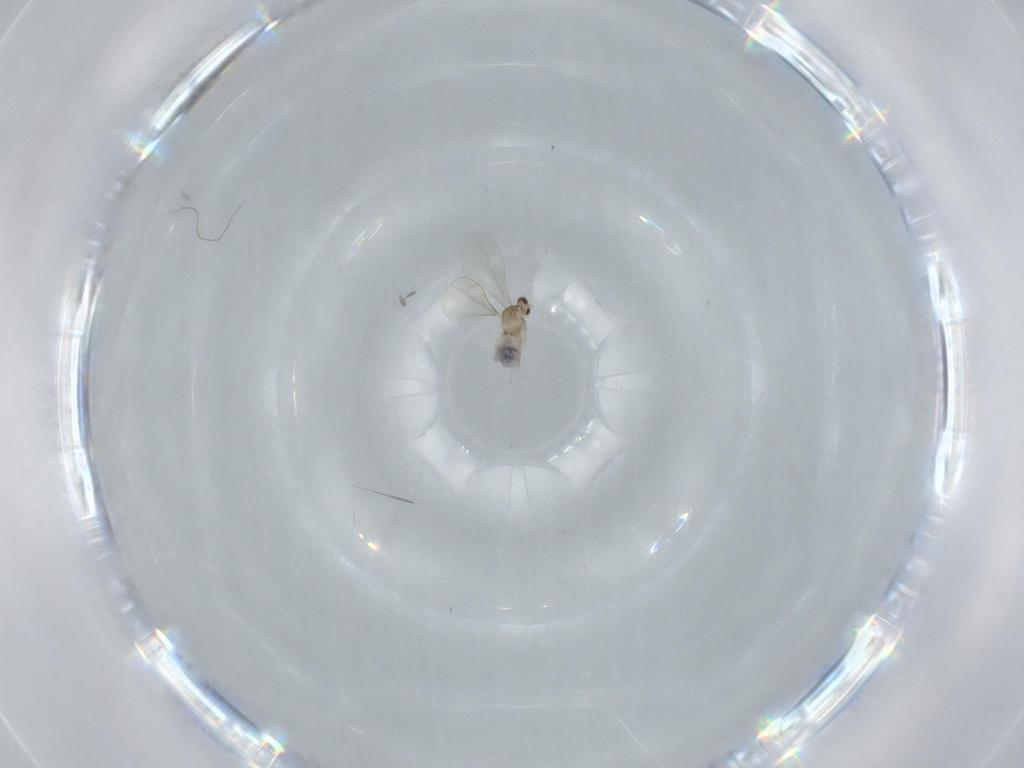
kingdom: Animalia
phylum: Arthropoda
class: Insecta
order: Diptera
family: Cecidomyiidae
